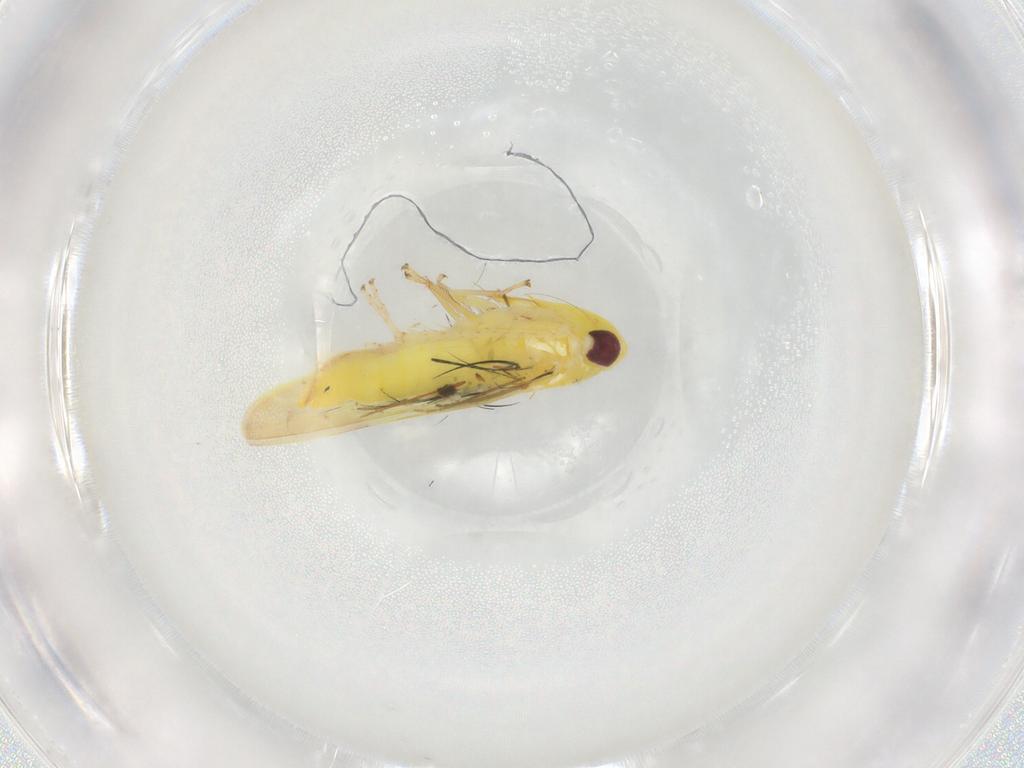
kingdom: Animalia
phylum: Arthropoda
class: Insecta
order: Hemiptera
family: Cicadellidae
